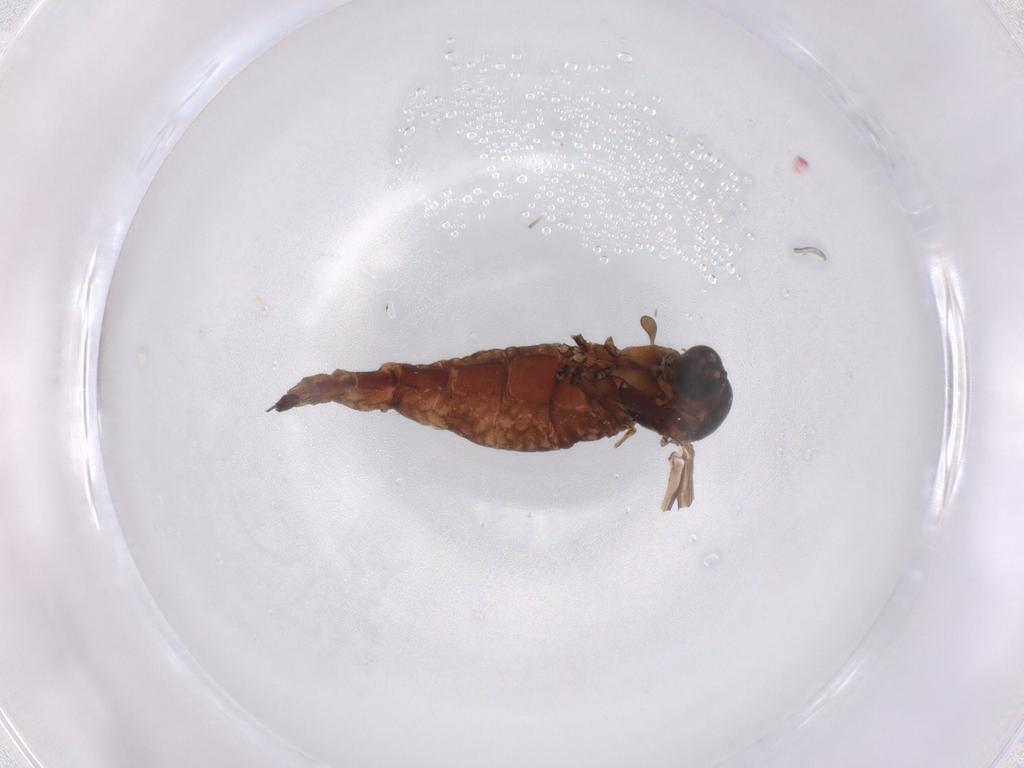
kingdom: Animalia
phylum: Arthropoda
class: Insecta
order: Diptera
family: Sciaridae
